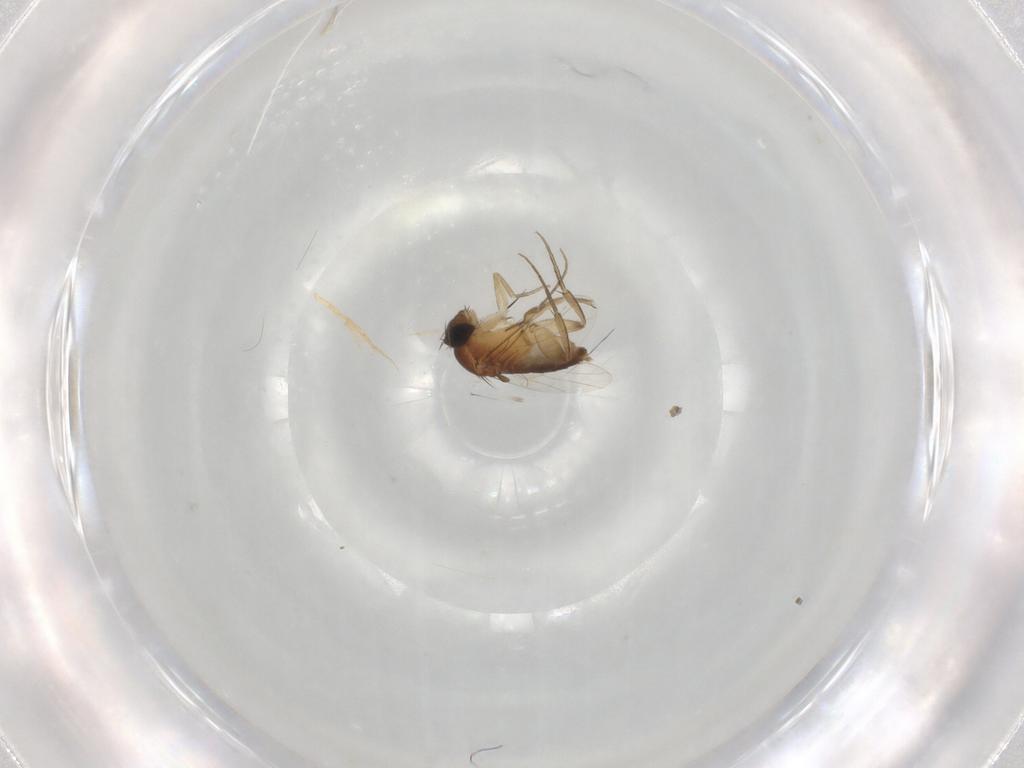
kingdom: Animalia
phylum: Arthropoda
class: Insecta
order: Diptera
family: Phoridae
